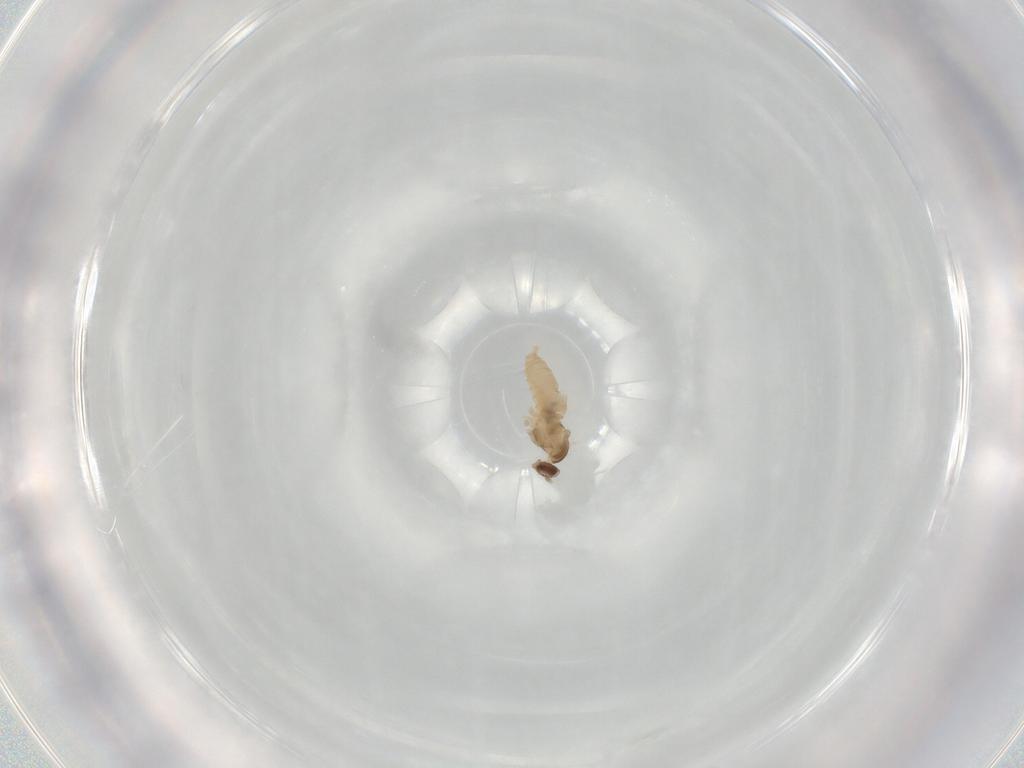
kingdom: Animalia
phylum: Arthropoda
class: Insecta
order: Diptera
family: Cecidomyiidae
